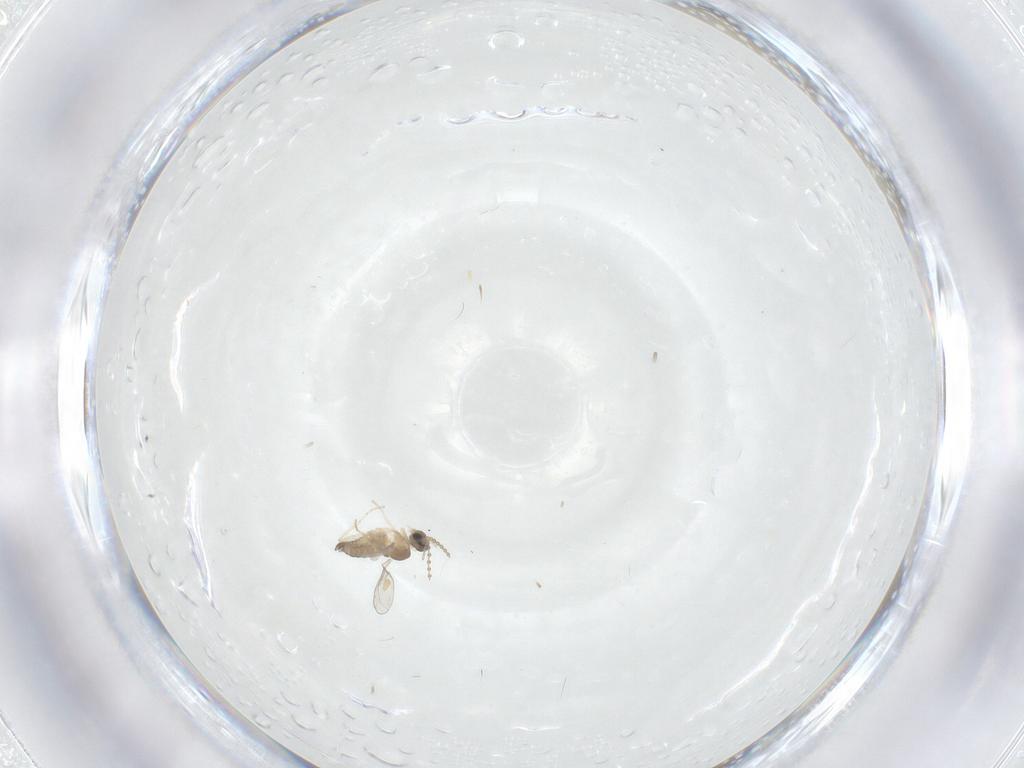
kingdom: Animalia
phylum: Arthropoda
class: Insecta
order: Diptera
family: Cecidomyiidae
